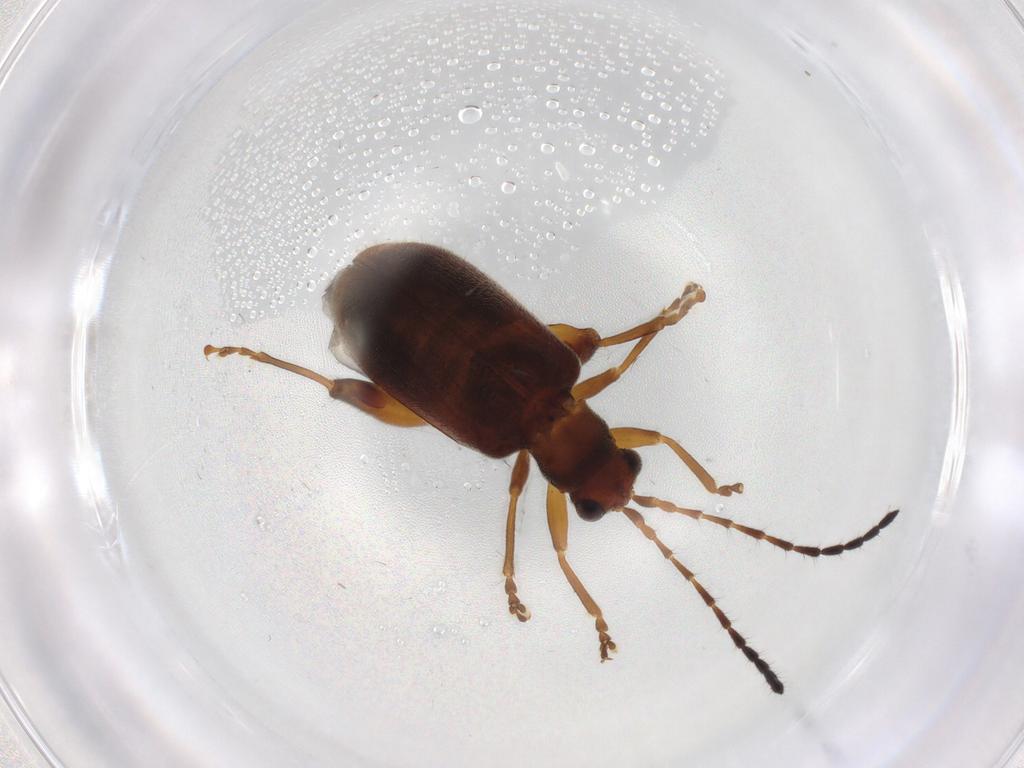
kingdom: Animalia
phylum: Arthropoda
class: Insecta
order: Coleoptera
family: Chrysomelidae
